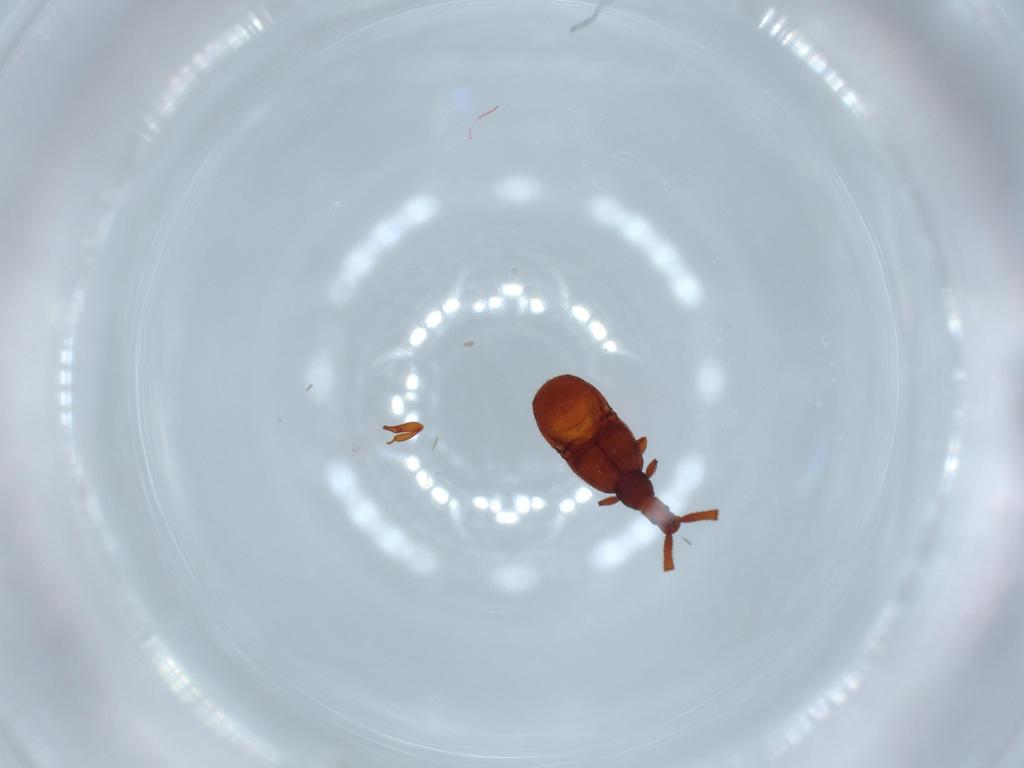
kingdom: Animalia
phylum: Arthropoda
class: Insecta
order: Coleoptera
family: Staphylinidae
